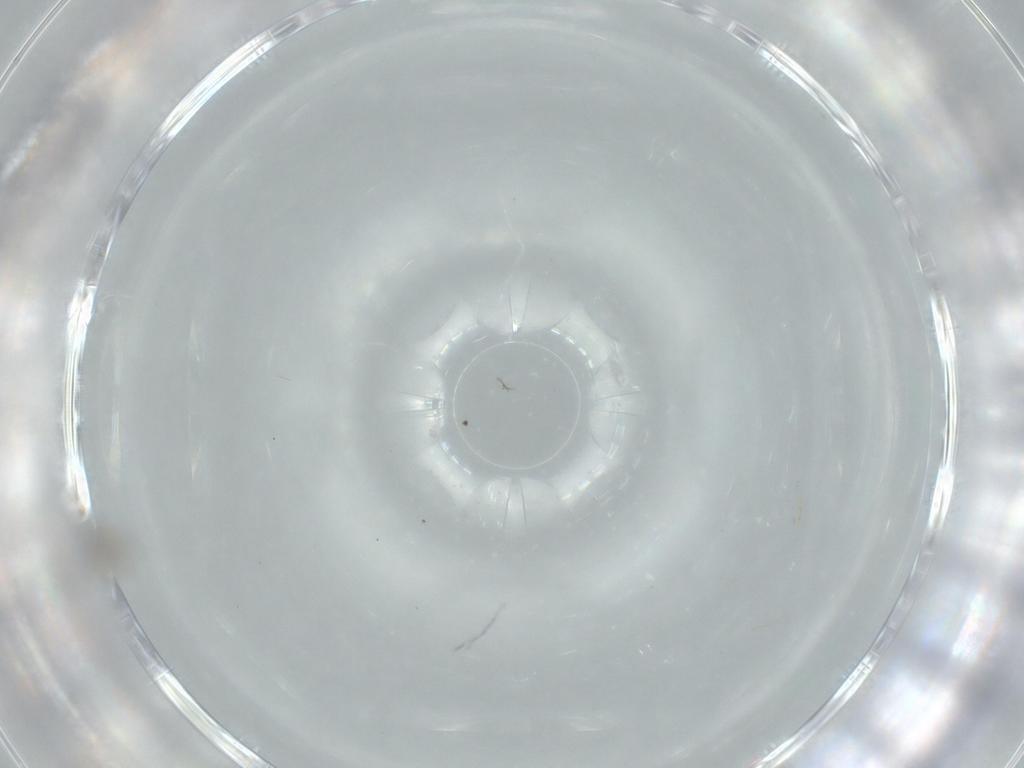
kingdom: Animalia
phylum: Arthropoda
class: Insecta
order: Diptera
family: Cecidomyiidae
